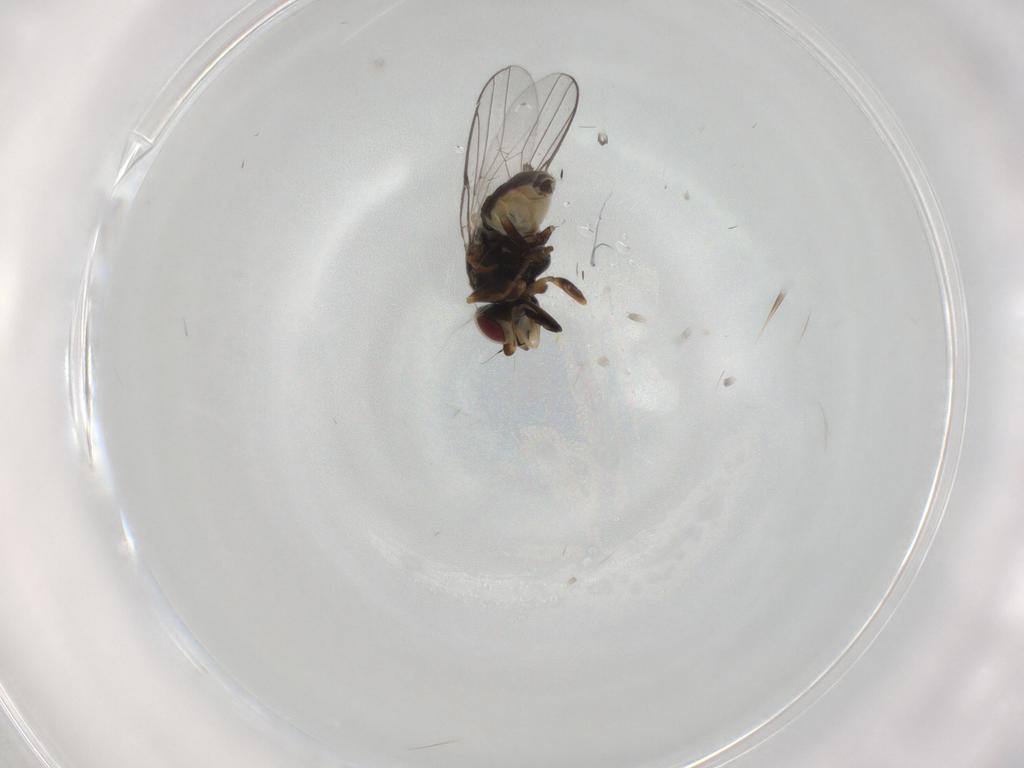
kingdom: Animalia
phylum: Arthropoda
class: Insecta
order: Diptera
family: Chloropidae
